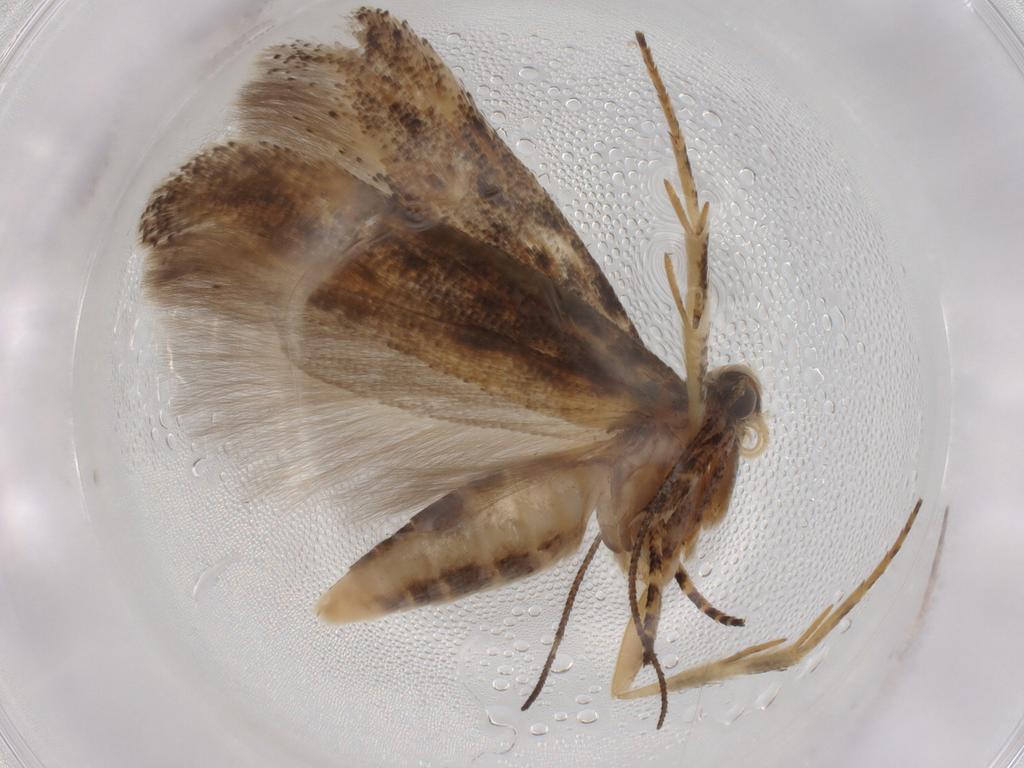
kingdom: Animalia
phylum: Arthropoda
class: Insecta
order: Lepidoptera
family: Gelechiidae
